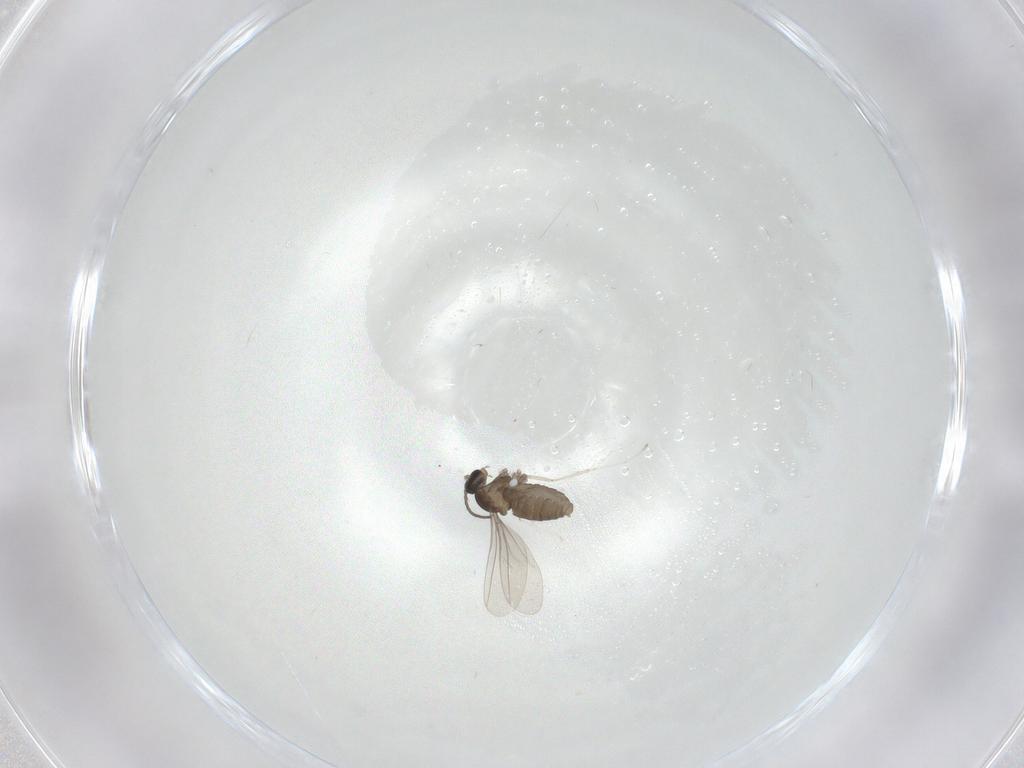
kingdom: Animalia
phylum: Arthropoda
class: Insecta
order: Diptera
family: Cecidomyiidae
